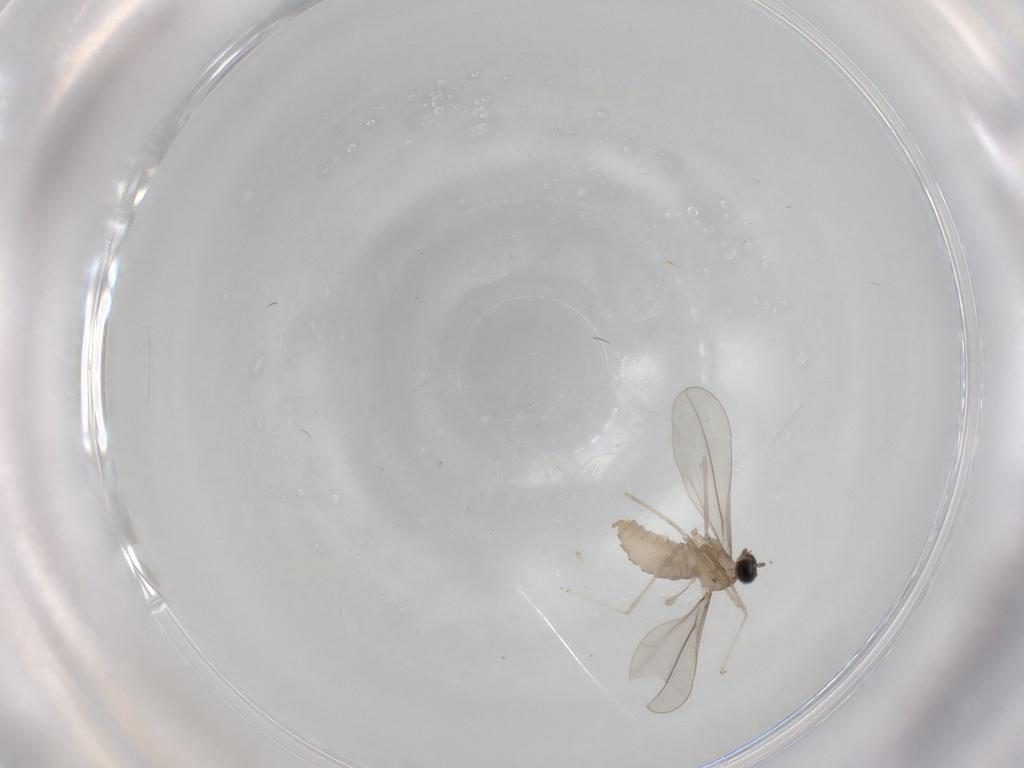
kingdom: Animalia
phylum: Arthropoda
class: Insecta
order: Diptera
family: Cecidomyiidae
